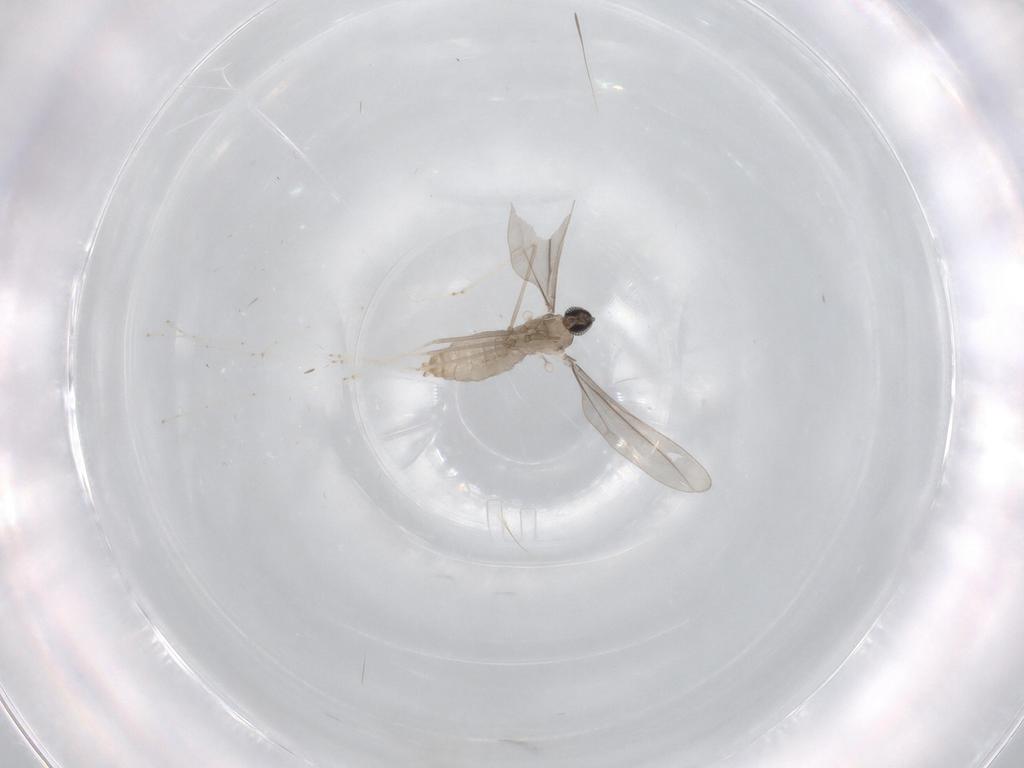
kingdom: Animalia
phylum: Arthropoda
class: Insecta
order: Diptera
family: Cecidomyiidae
